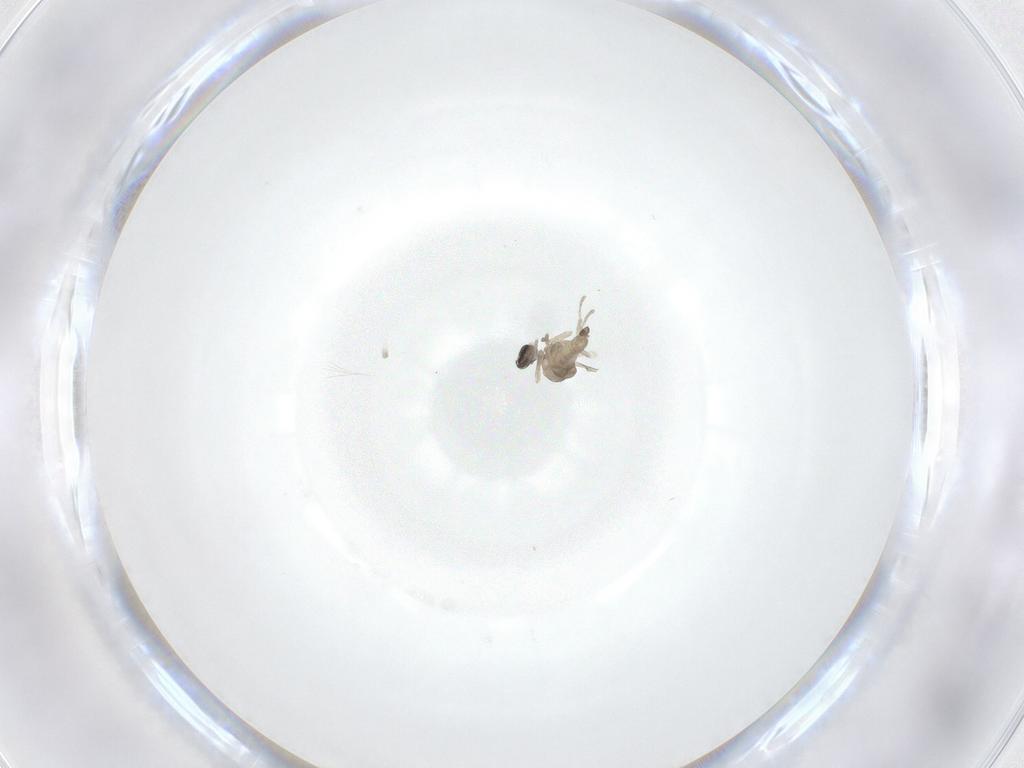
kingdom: Animalia
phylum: Arthropoda
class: Insecta
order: Diptera
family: Cecidomyiidae
